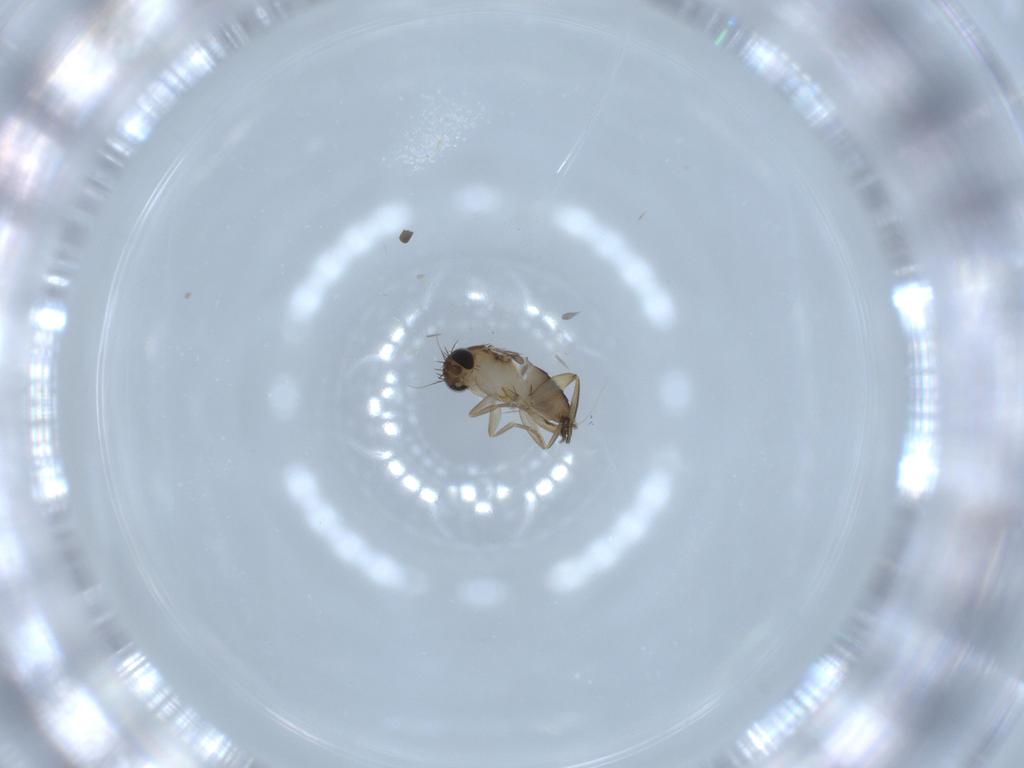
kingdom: Animalia
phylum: Arthropoda
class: Insecta
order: Diptera
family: Phoridae
